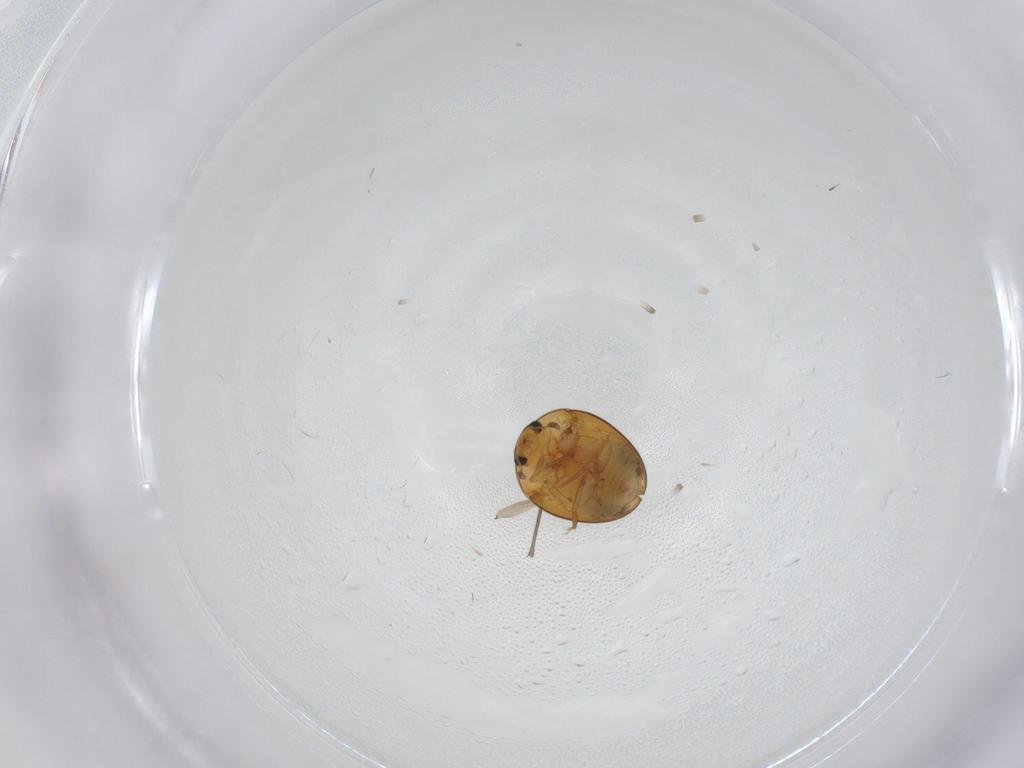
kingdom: Animalia
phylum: Arthropoda
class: Insecta
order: Coleoptera
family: Phalacridae
